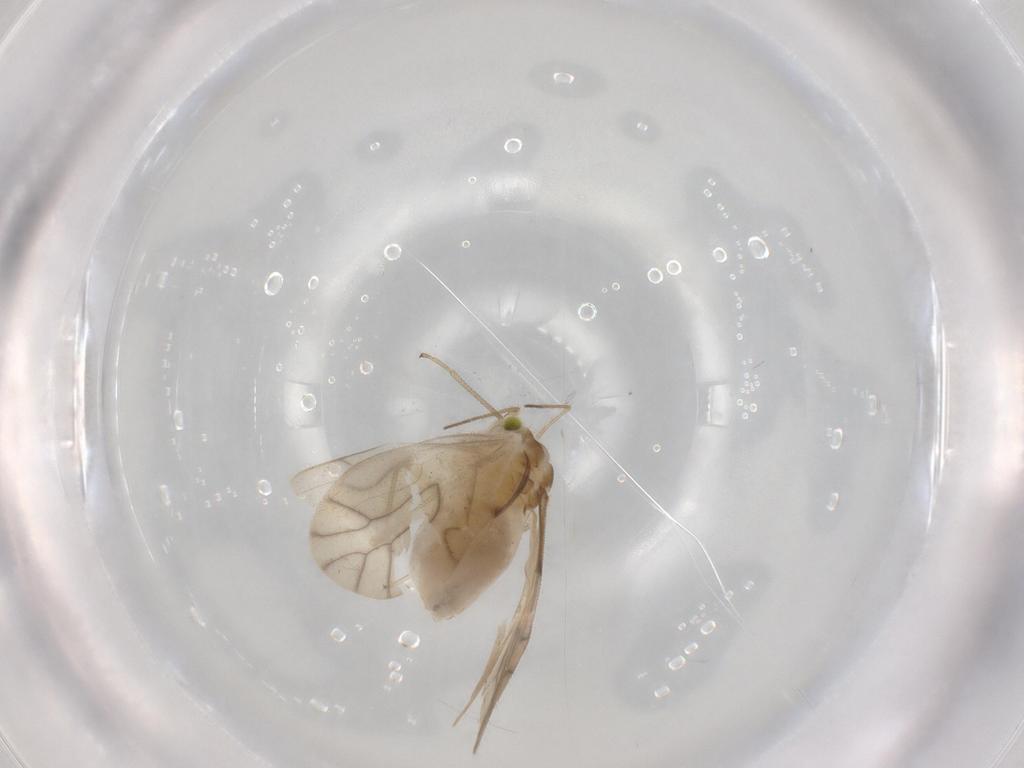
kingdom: Animalia
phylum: Arthropoda
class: Insecta
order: Psocodea
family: Caeciliusidae
